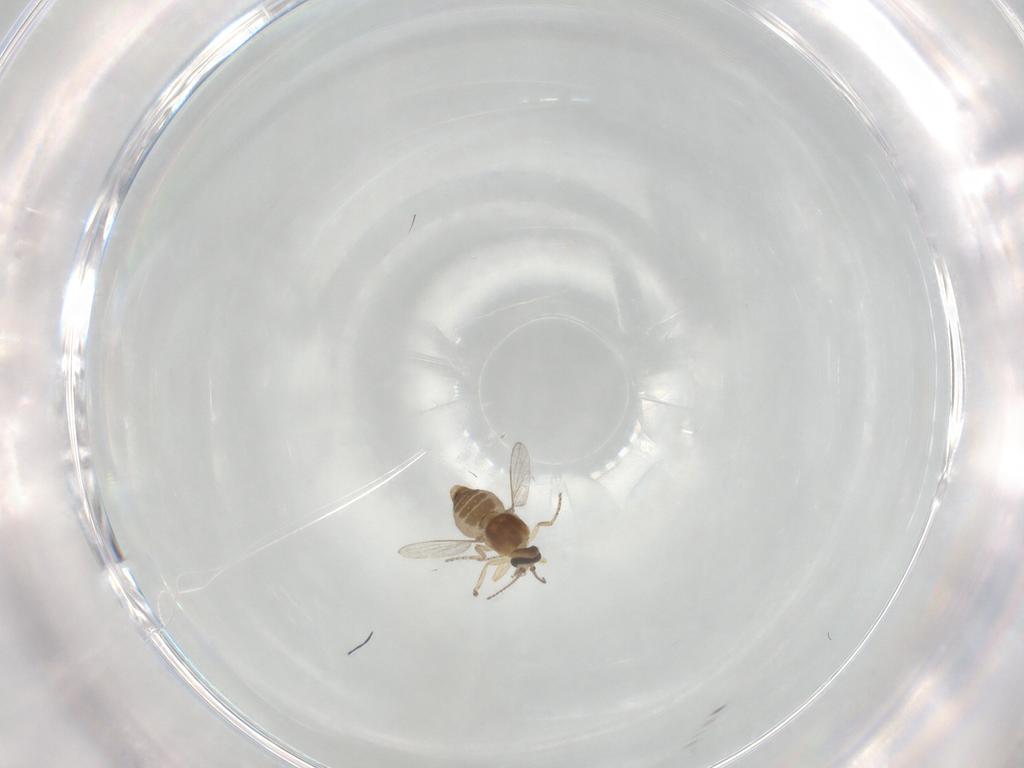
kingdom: Animalia
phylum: Arthropoda
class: Insecta
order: Diptera
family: Ceratopogonidae
